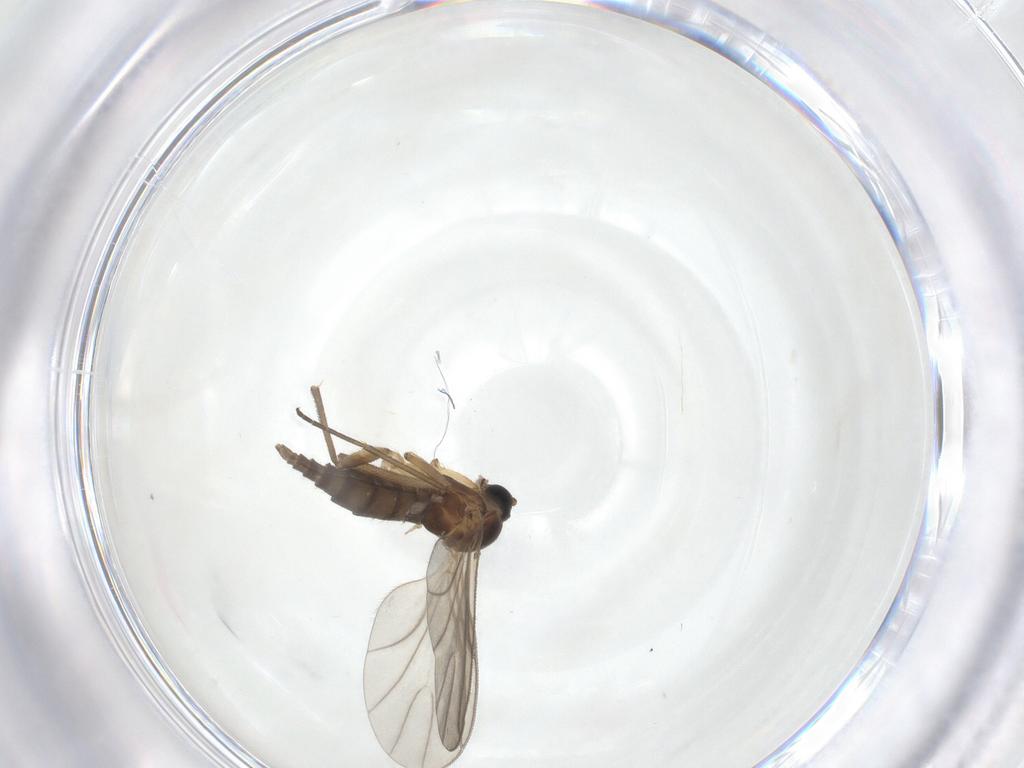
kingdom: Animalia
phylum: Arthropoda
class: Insecta
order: Diptera
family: Sciaridae
